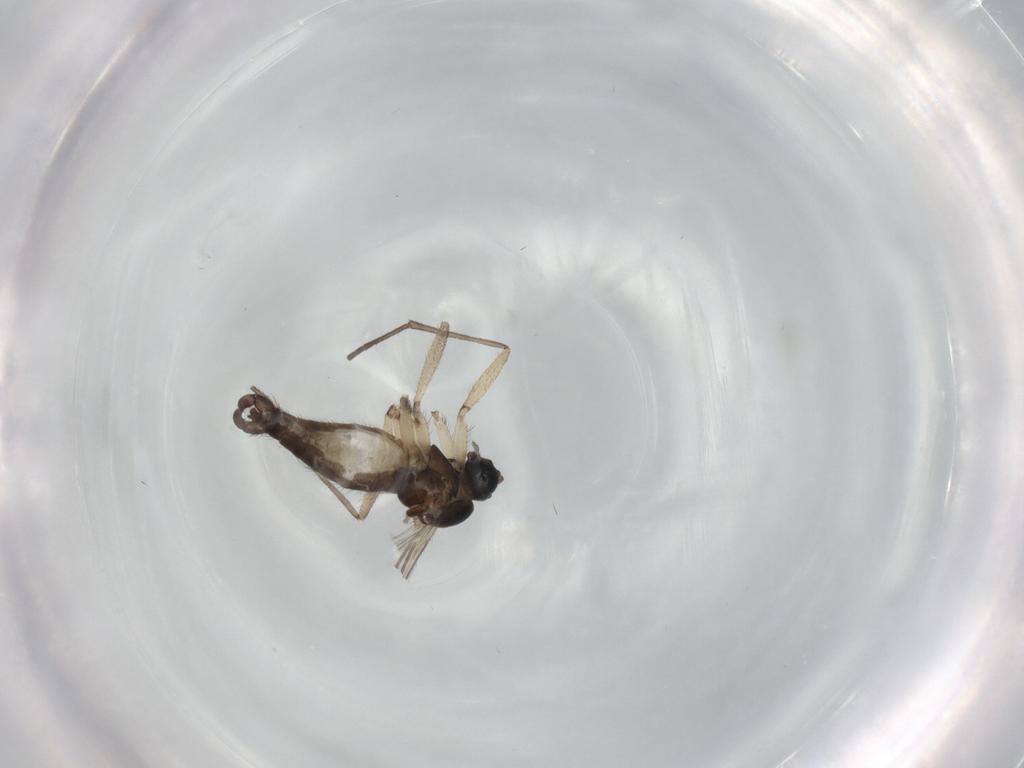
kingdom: Animalia
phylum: Arthropoda
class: Insecta
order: Diptera
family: Sciaridae
